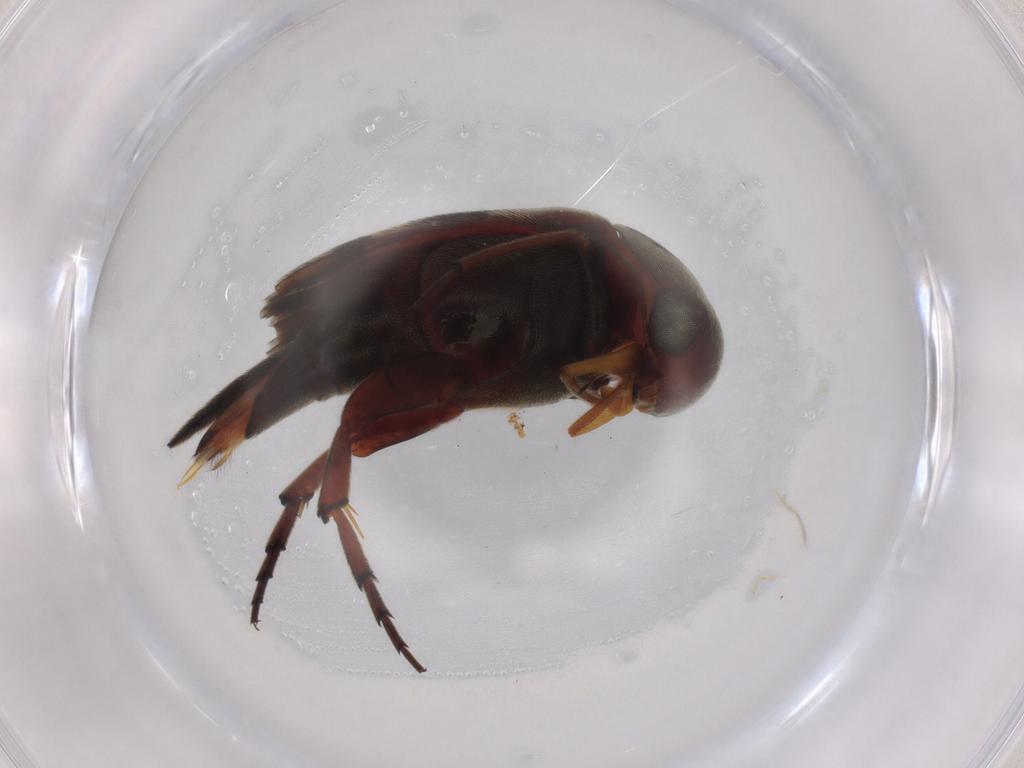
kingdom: Animalia
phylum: Arthropoda
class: Insecta
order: Coleoptera
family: Mordellidae
